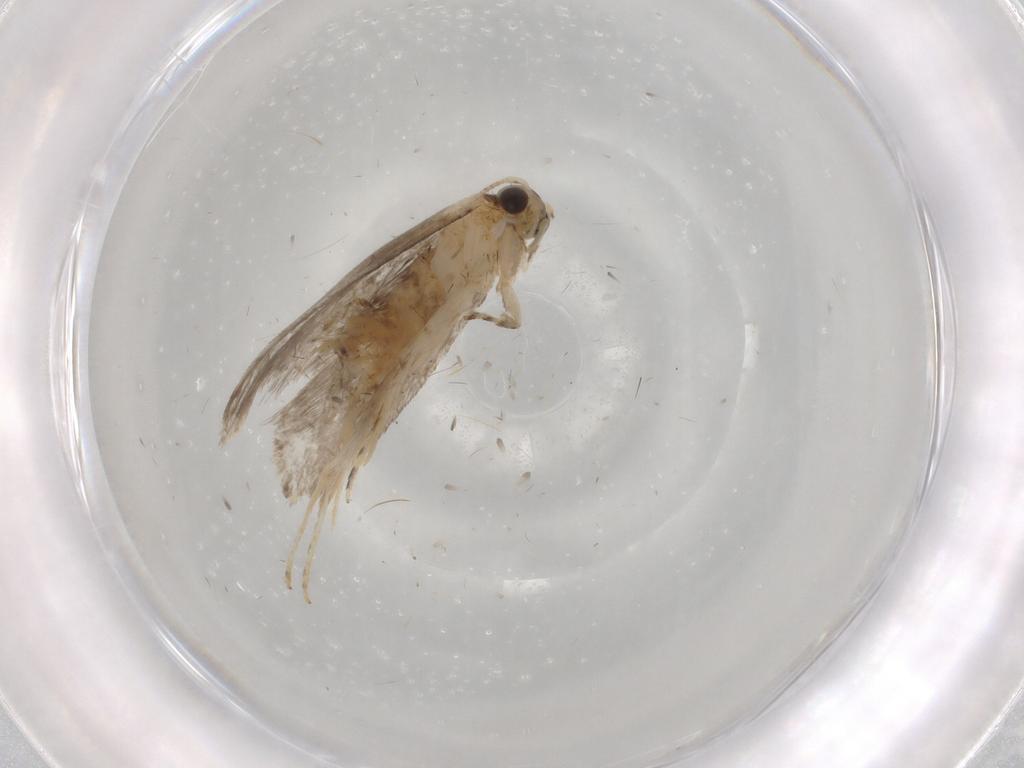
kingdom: Animalia
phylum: Arthropoda
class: Insecta
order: Lepidoptera
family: Tineidae
